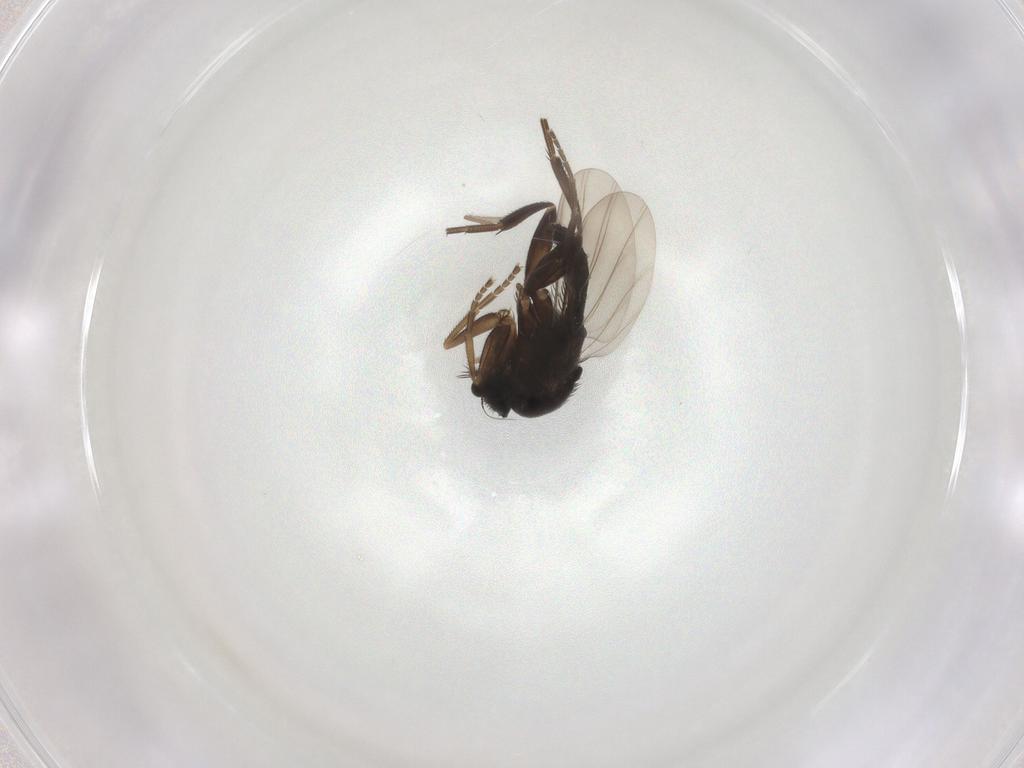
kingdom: Animalia
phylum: Arthropoda
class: Insecta
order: Diptera
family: Phoridae
